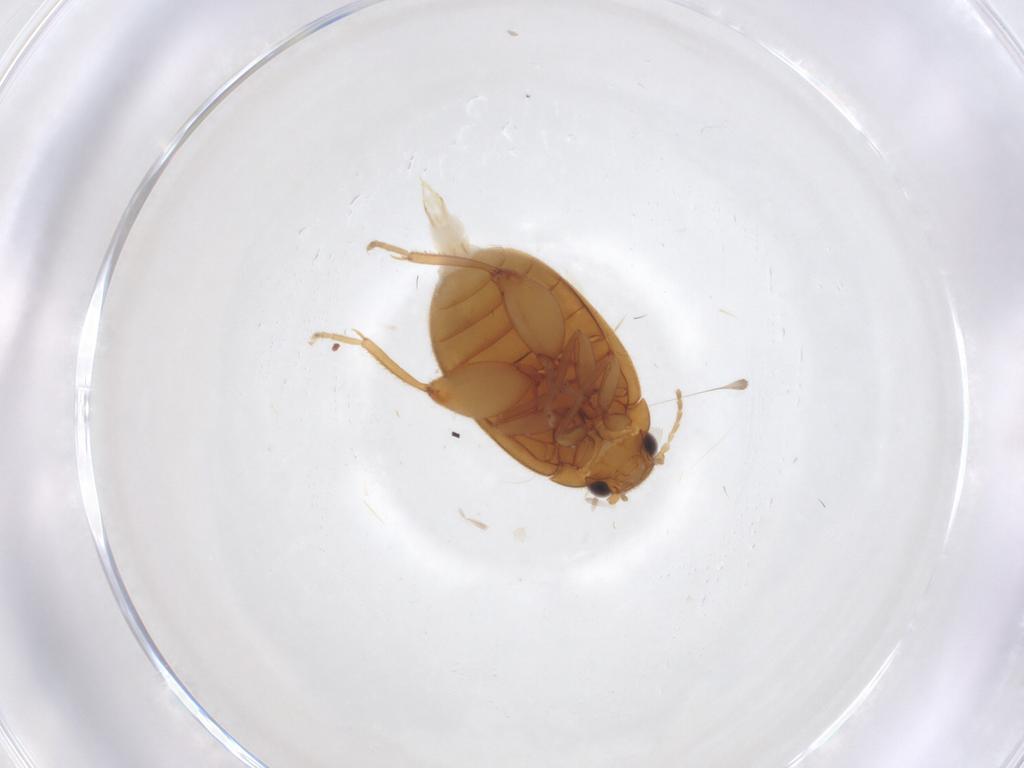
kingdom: Animalia
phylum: Arthropoda
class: Insecta
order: Coleoptera
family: Scirtidae
